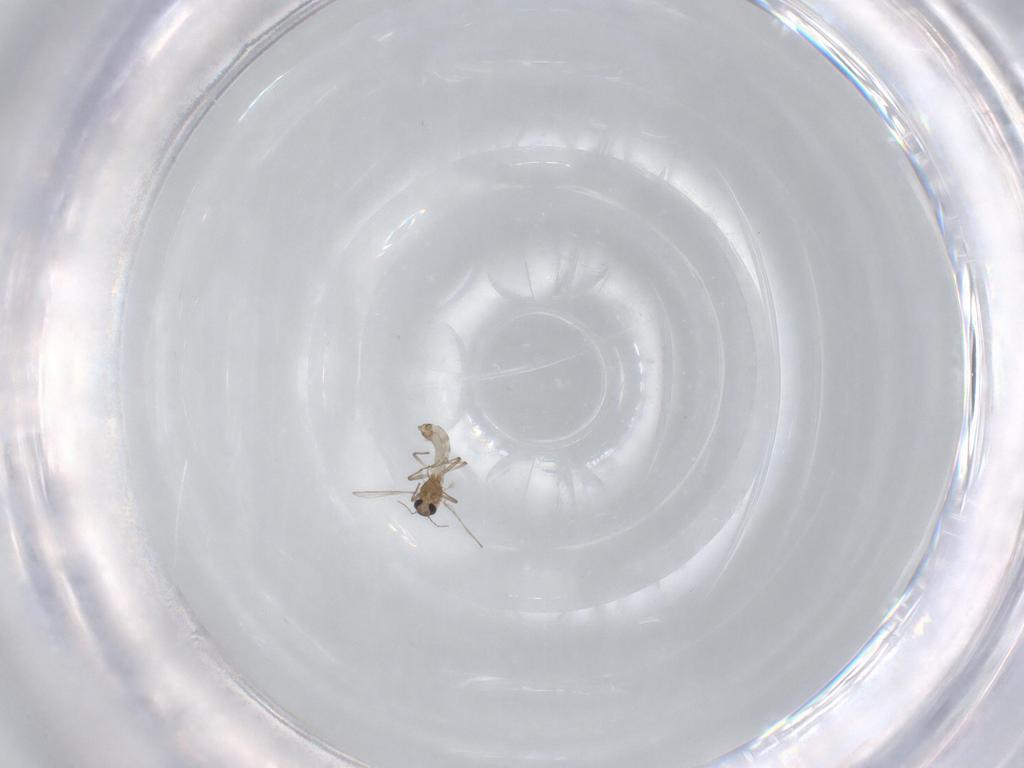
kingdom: Animalia
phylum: Arthropoda
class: Insecta
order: Diptera
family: Chironomidae
